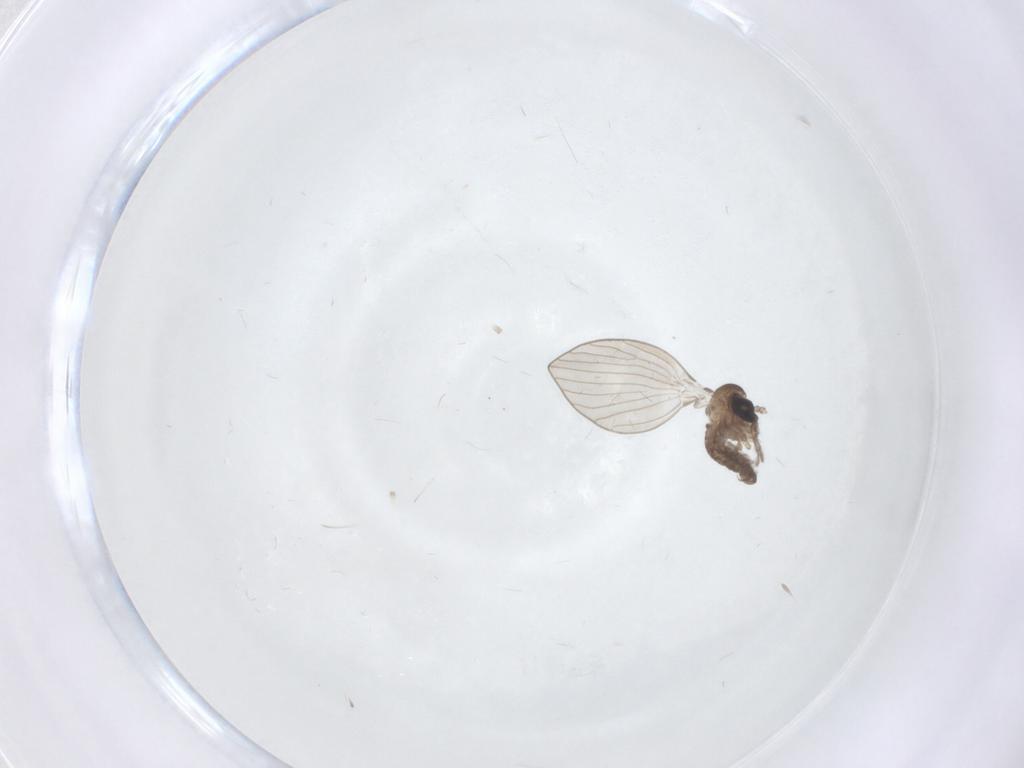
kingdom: Animalia
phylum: Arthropoda
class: Insecta
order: Diptera
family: Psychodidae
